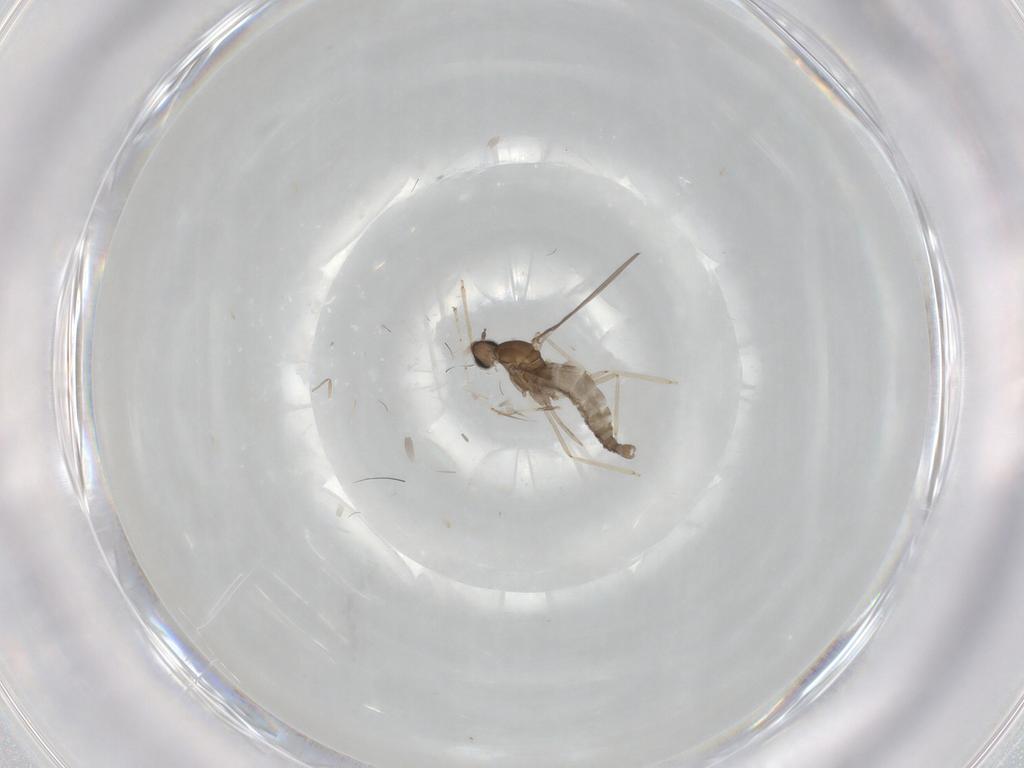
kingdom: Animalia
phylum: Arthropoda
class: Insecta
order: Diptera
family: Cecidomyiidae
